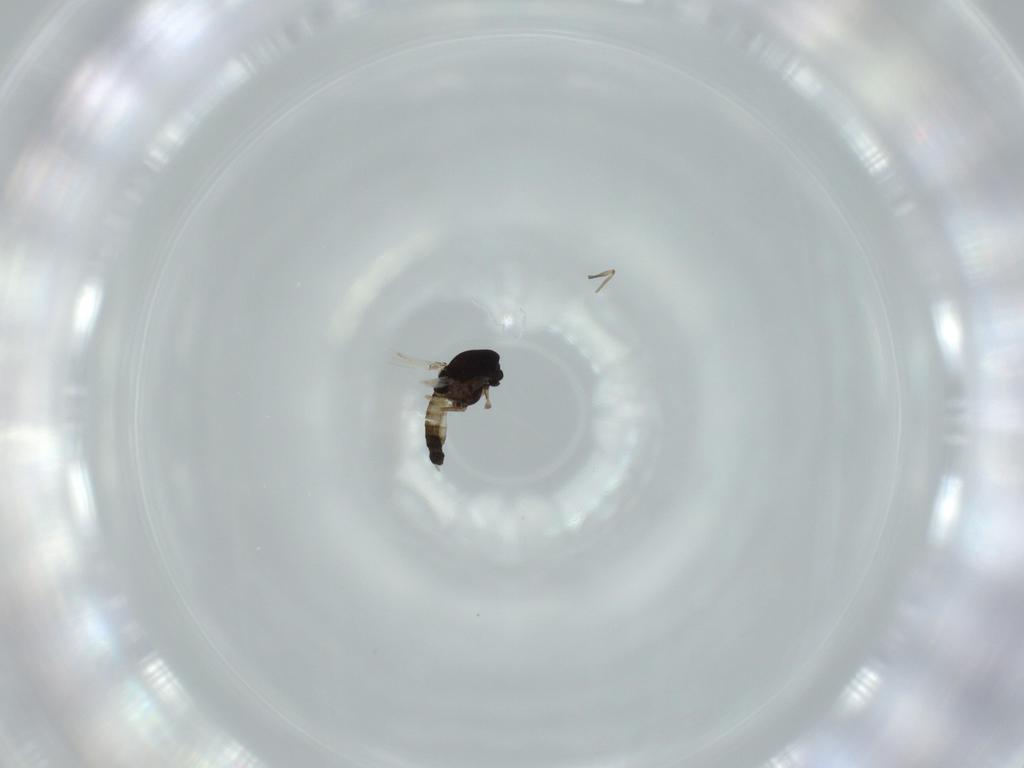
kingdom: Animalia
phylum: Arthropoda
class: Insecta
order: Diptera
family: Chironomidae
